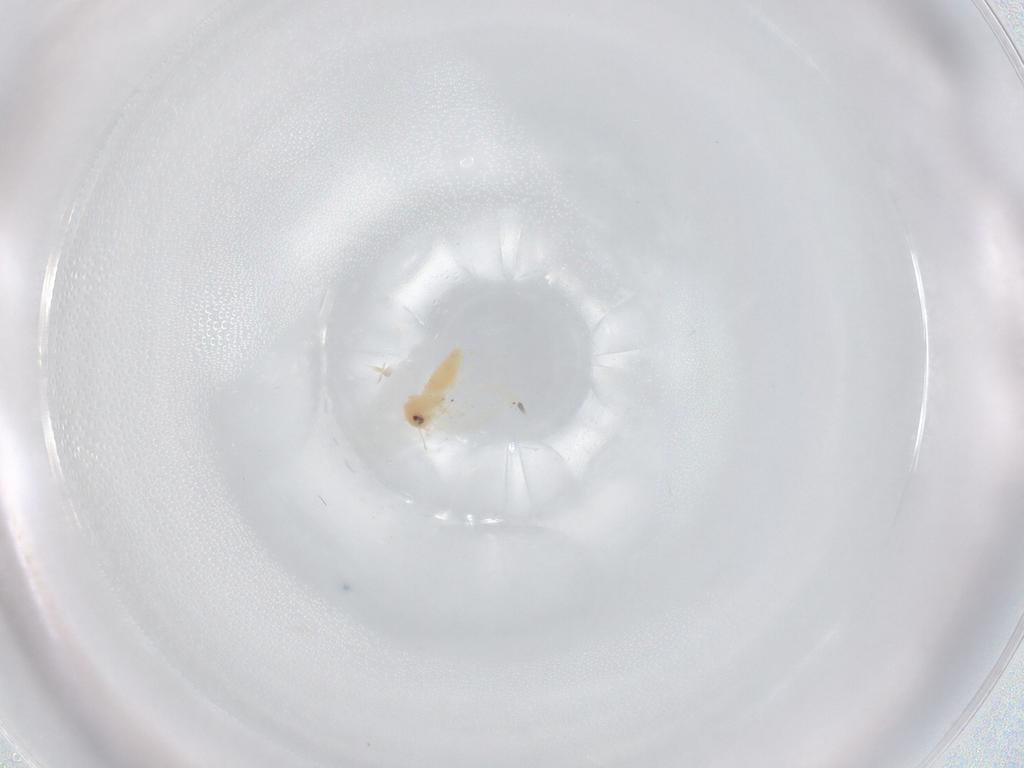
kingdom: Animalia
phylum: Arthropoda
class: Insecta
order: Hemiptera
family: Aleyrodidae
